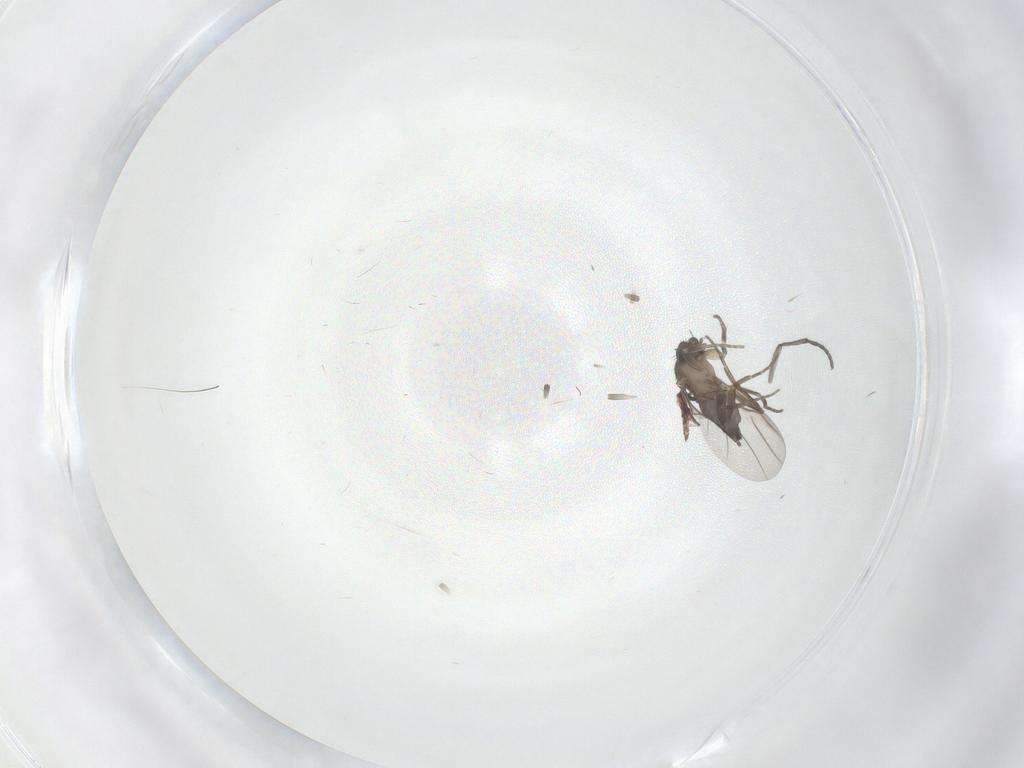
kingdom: Animalia
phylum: Arthropoda
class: Insecta
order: Diptera
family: Sciaridae
